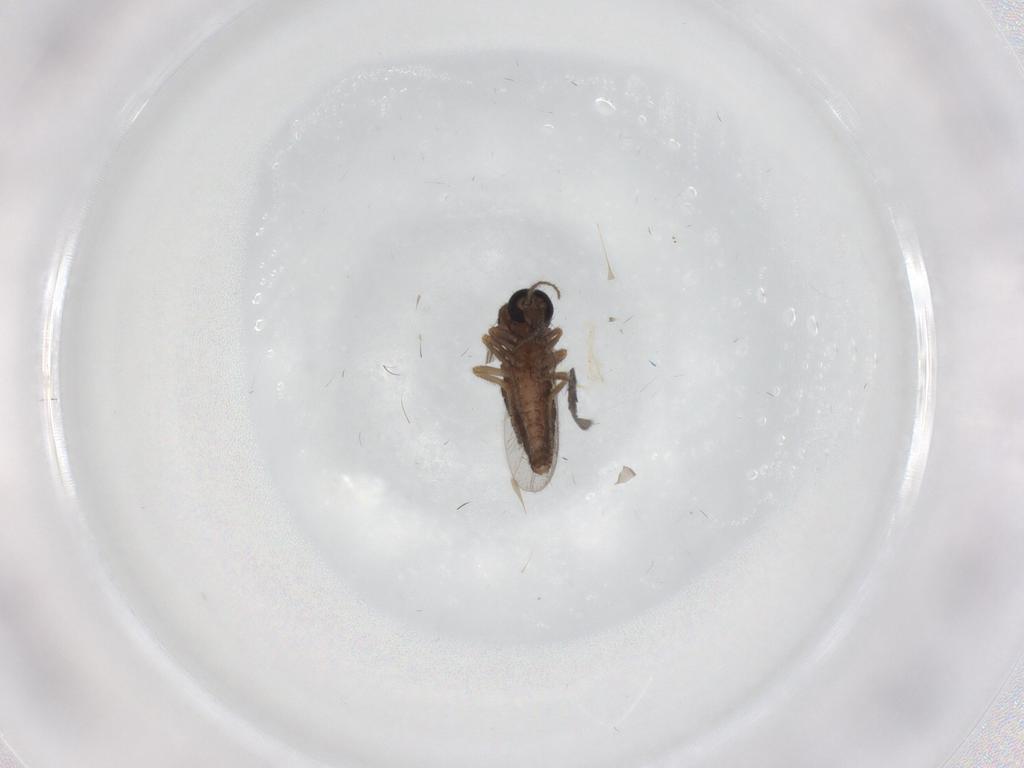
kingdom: Animalia
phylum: Arthropoda
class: Insecta
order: Diptera
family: Ceratopogonidae
